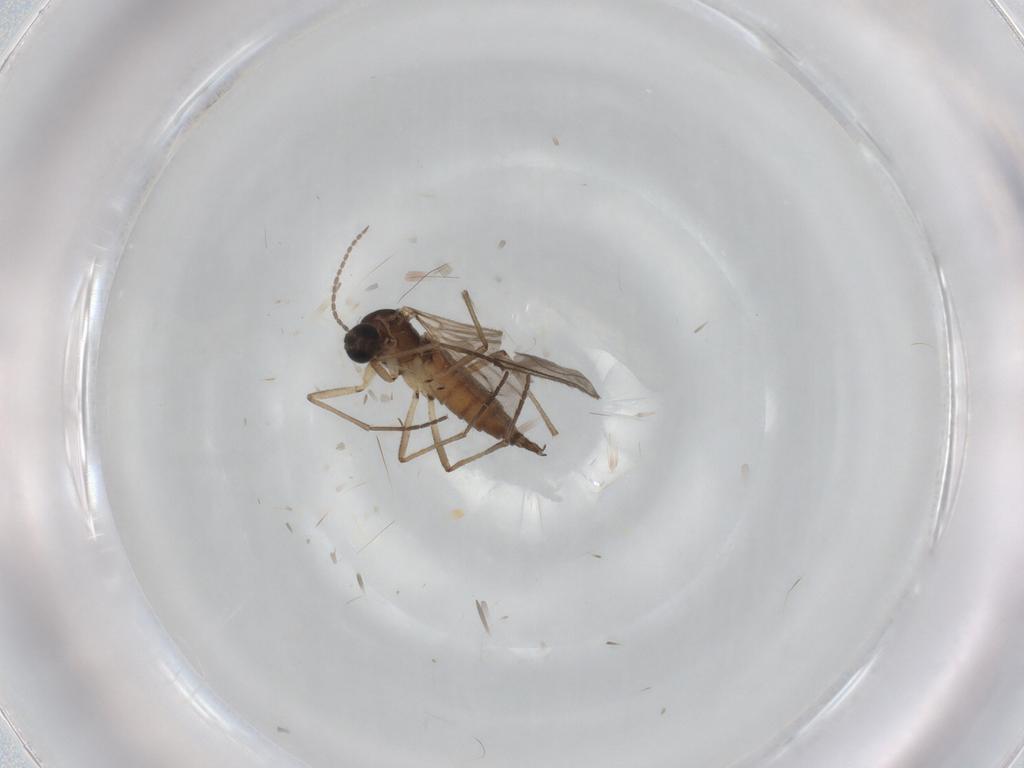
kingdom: Animalia
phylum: Arthropoda
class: Insecta
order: Diptera
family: Sciaridae
